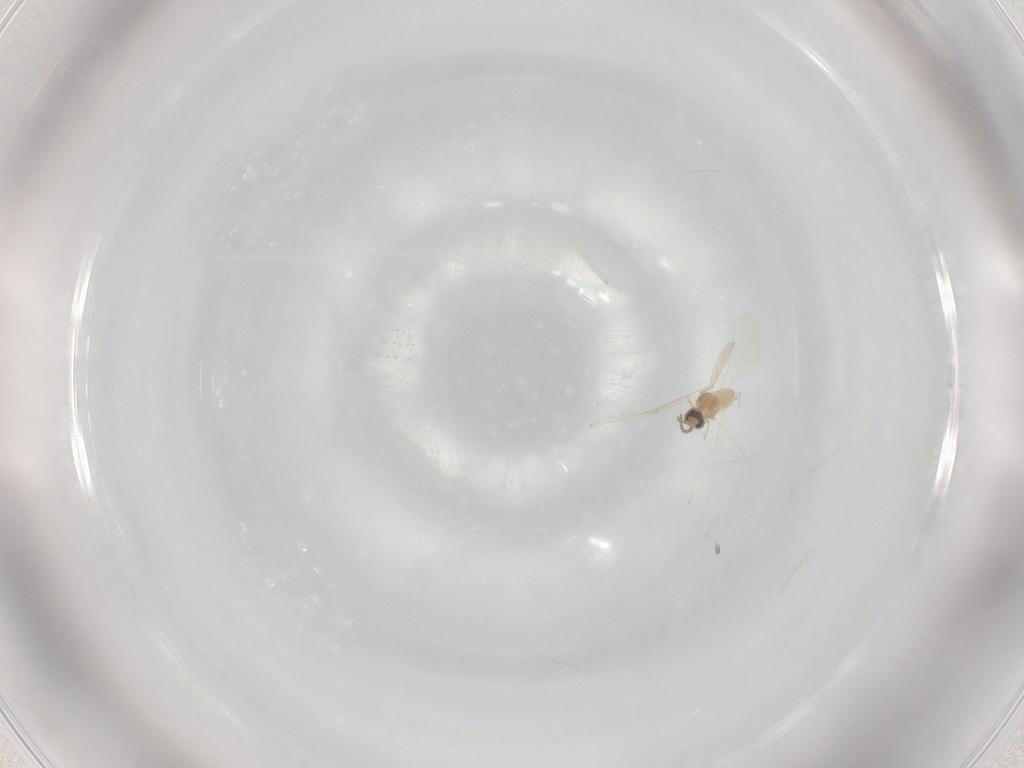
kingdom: Animalia
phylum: Arthropoda
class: Insecta
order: Diptera
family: Cecidomyiidae
